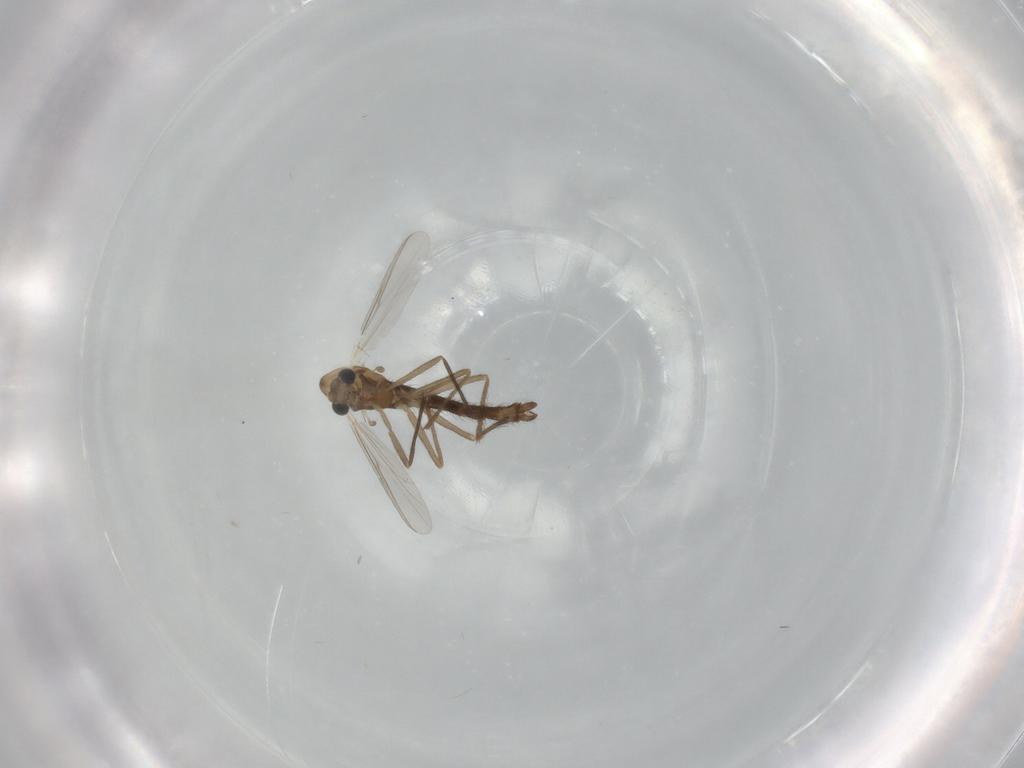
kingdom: Animalia
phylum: Arthropoda
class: Insecta
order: Diptera
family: Chironomidae
